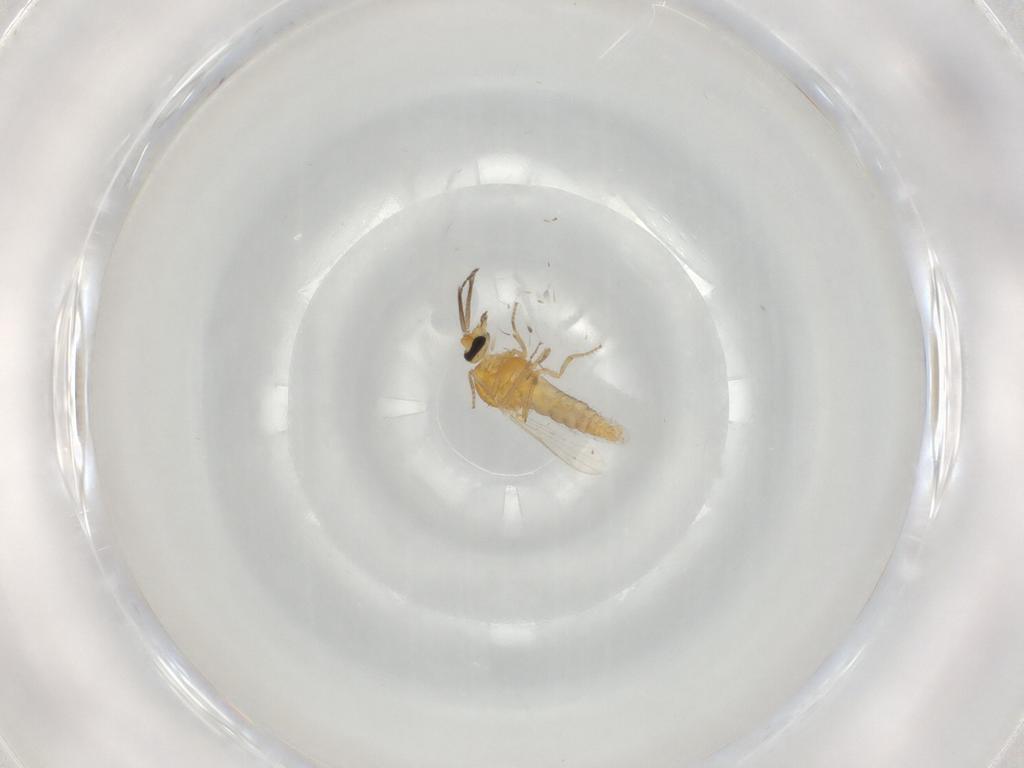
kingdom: Animalia
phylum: Arthropoda
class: Insecta
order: Diptera
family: Ceratopogonidae
